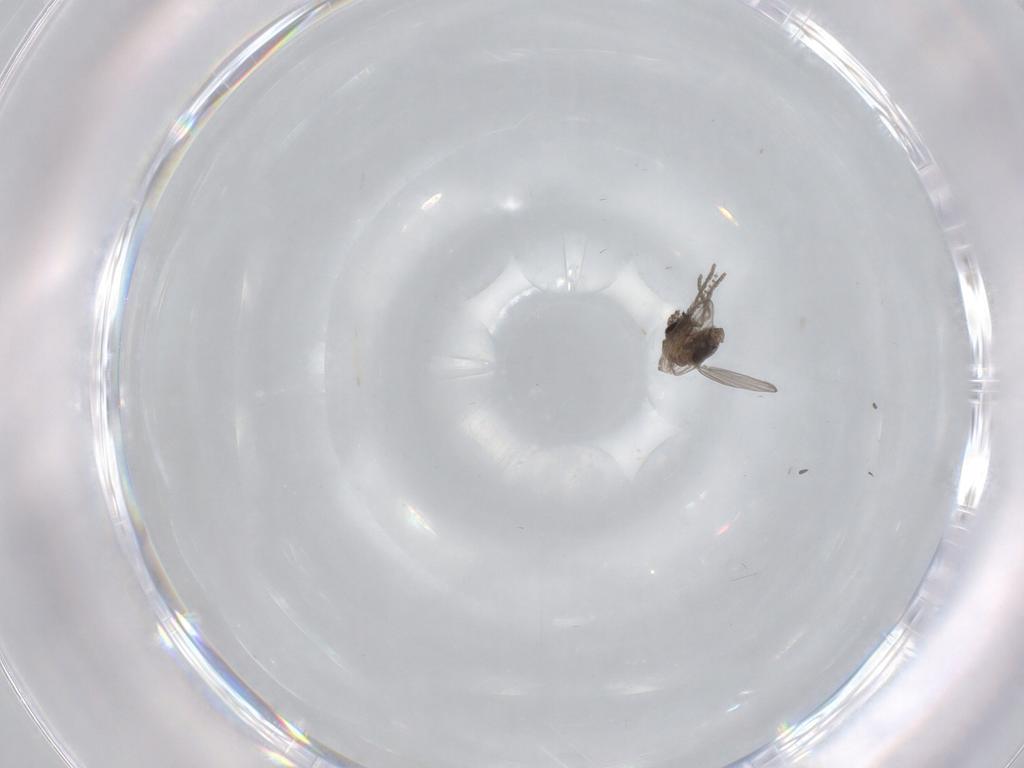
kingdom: Animalia
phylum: Arthropoda
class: Insecta
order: Diptera
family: Psychodidae
